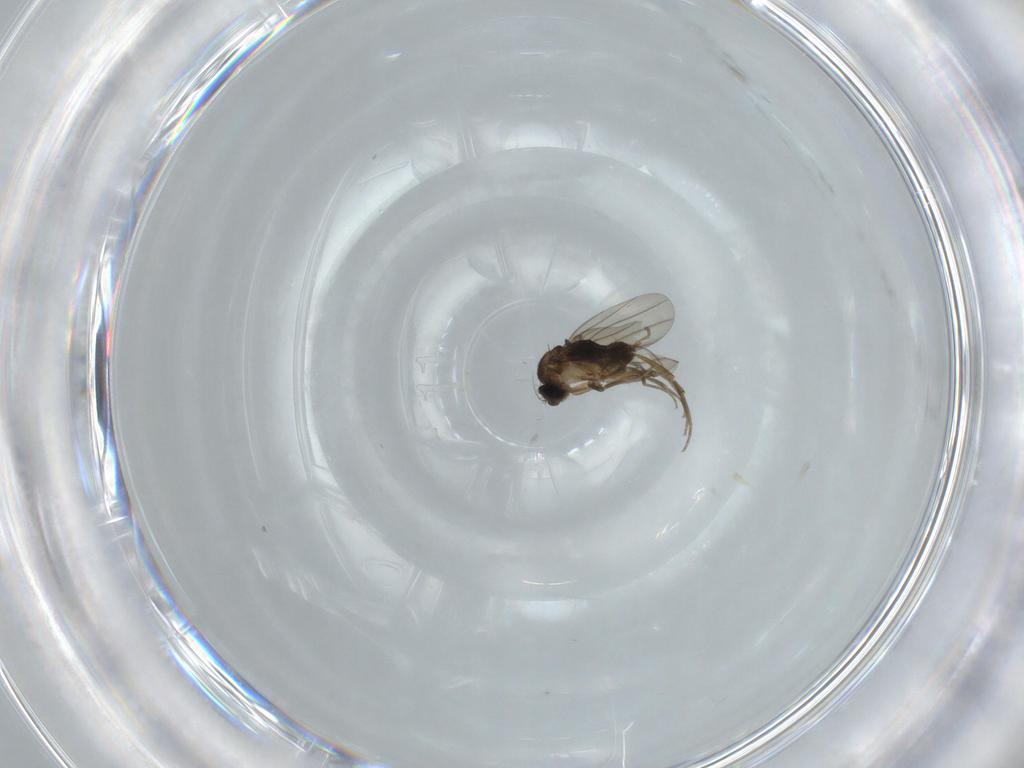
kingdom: Animalia
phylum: Arthropoda
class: Insecta
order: Diptera
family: Phoridae
